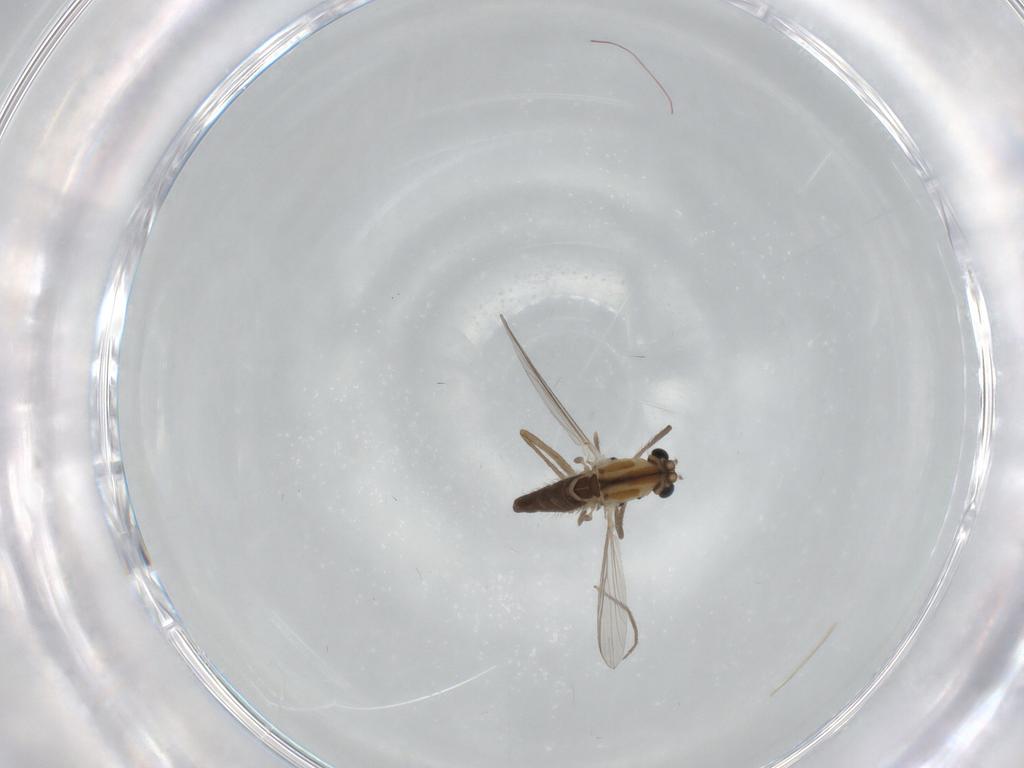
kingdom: Animalia
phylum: Arthropoda
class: Insecta
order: Diptera
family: Chironomidae
